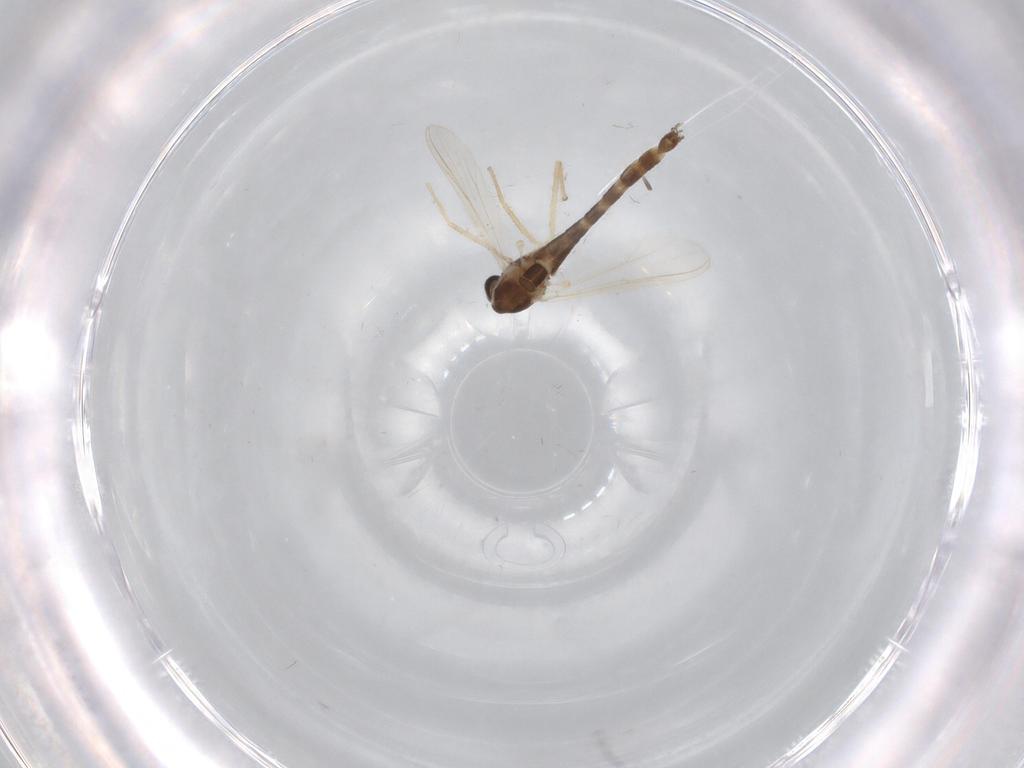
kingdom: Animalia
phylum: Arthropoda
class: Insecta
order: Diptera
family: Chironomidae
